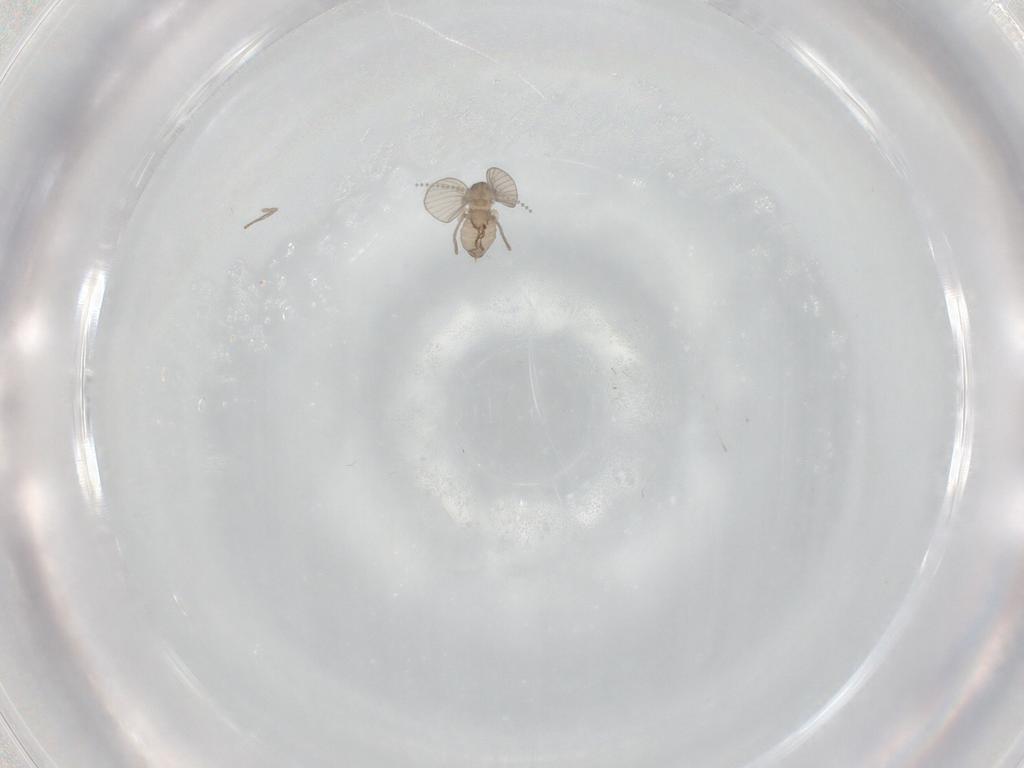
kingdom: Animalia
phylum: Arthropoda
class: Insecta
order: Diptera
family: Psychodidae
